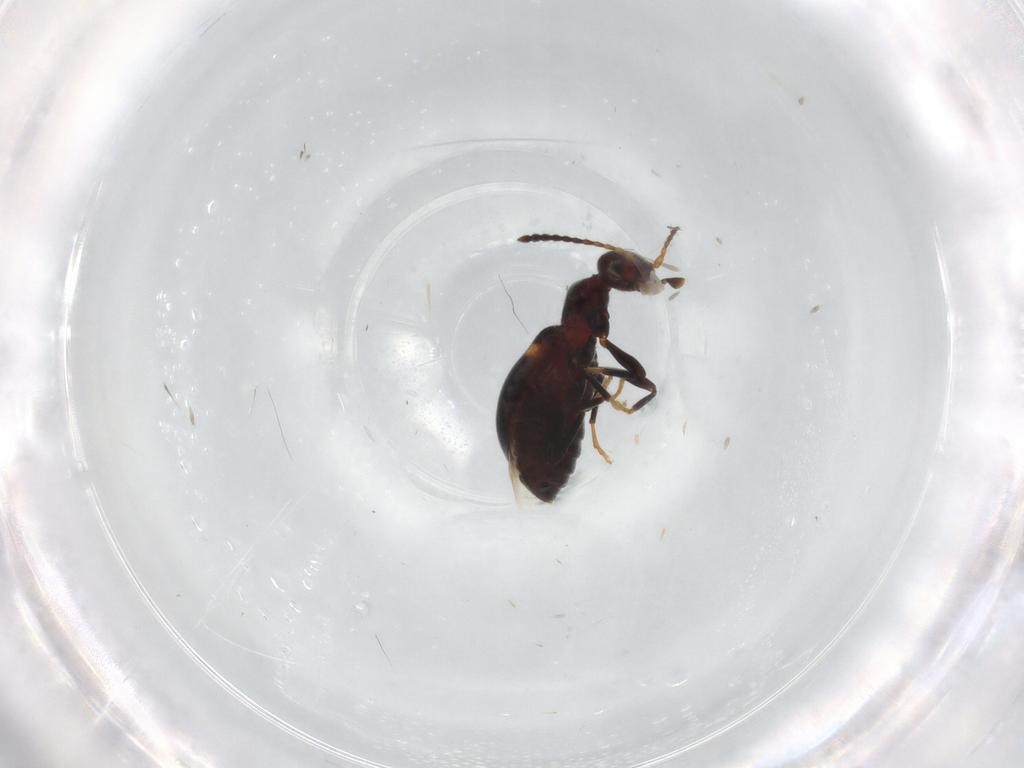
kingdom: Animalia
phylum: Arthropoda
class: Insecta
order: Coleoptera
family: Anthicidae
